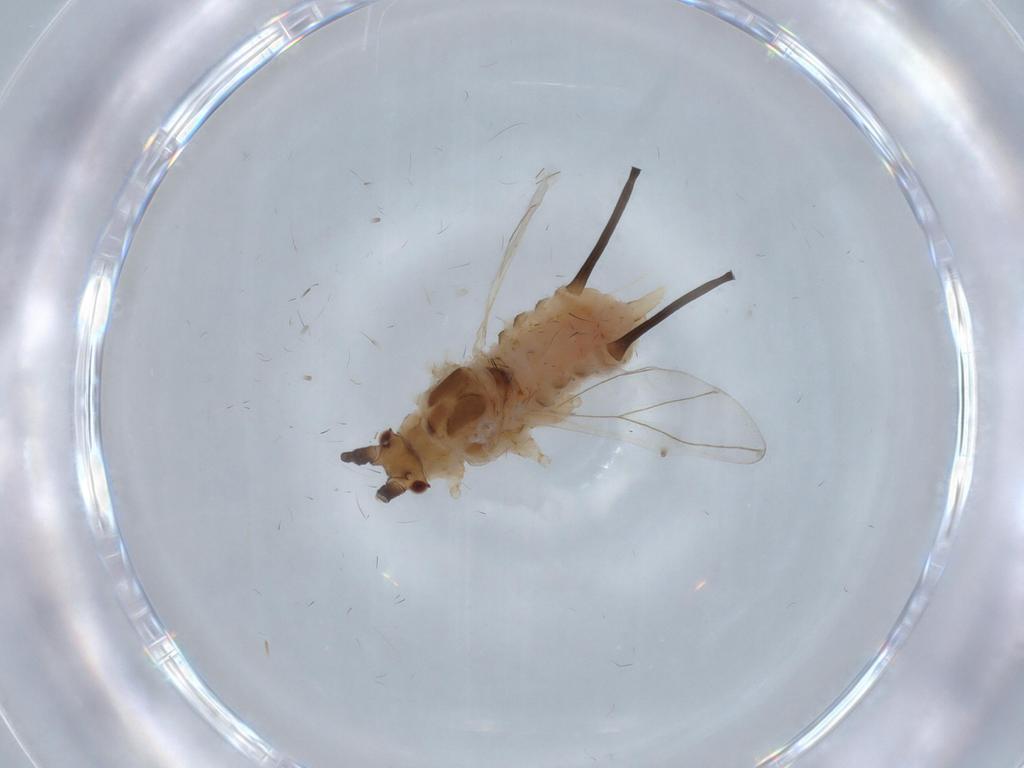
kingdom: Animalia
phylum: Arthropoda
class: Insecta
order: Hemiptera
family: Aphididae
